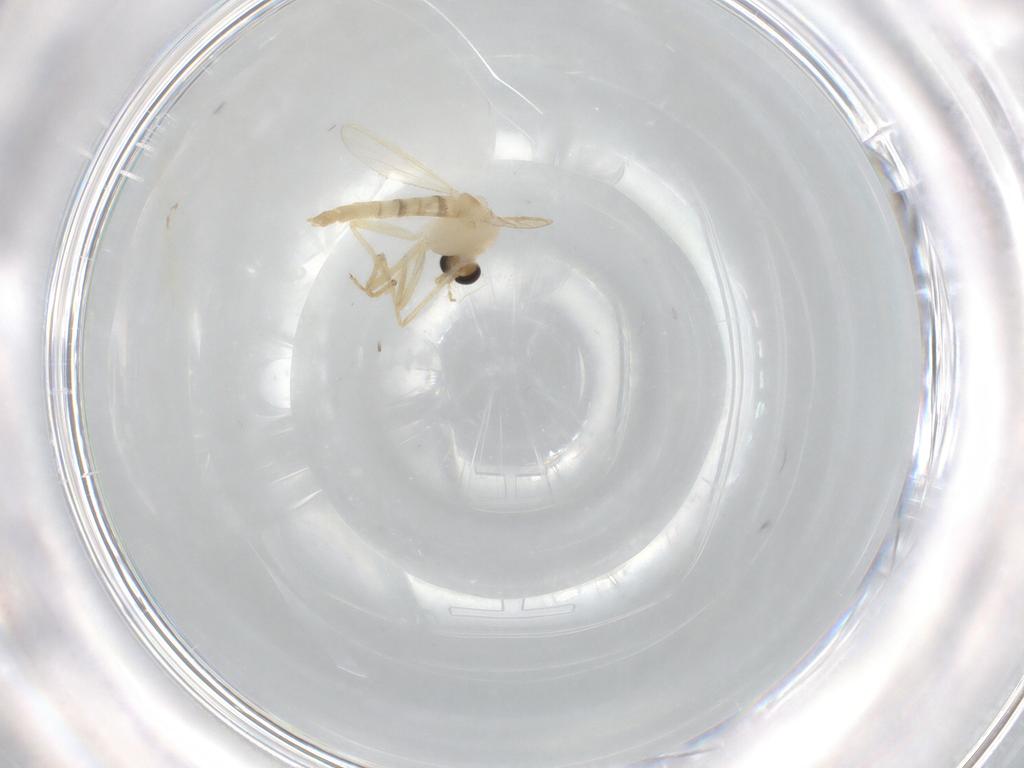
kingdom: Animalia
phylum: Arthropoda
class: Insecta
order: Diptera
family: Chironomidae
